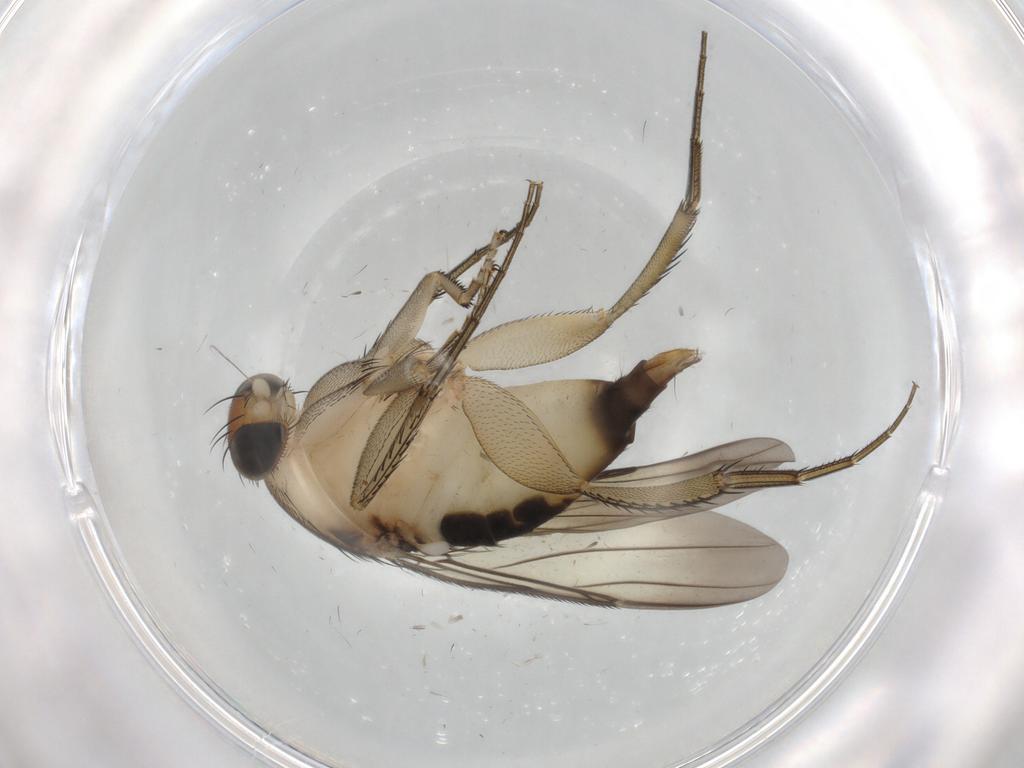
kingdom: Animalia
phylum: Arthropoda
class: Insecta
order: Diptera
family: Phoridae
